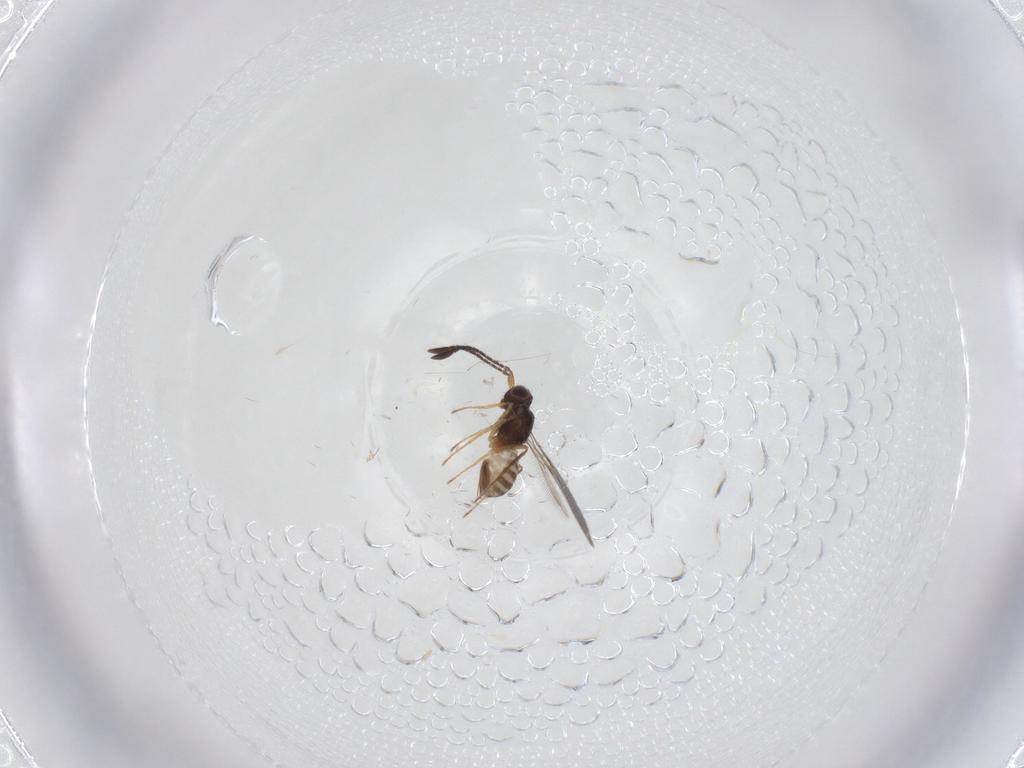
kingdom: Animalia
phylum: Arthropoda
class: Insecta
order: Hymenoptera
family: Mymaridae
